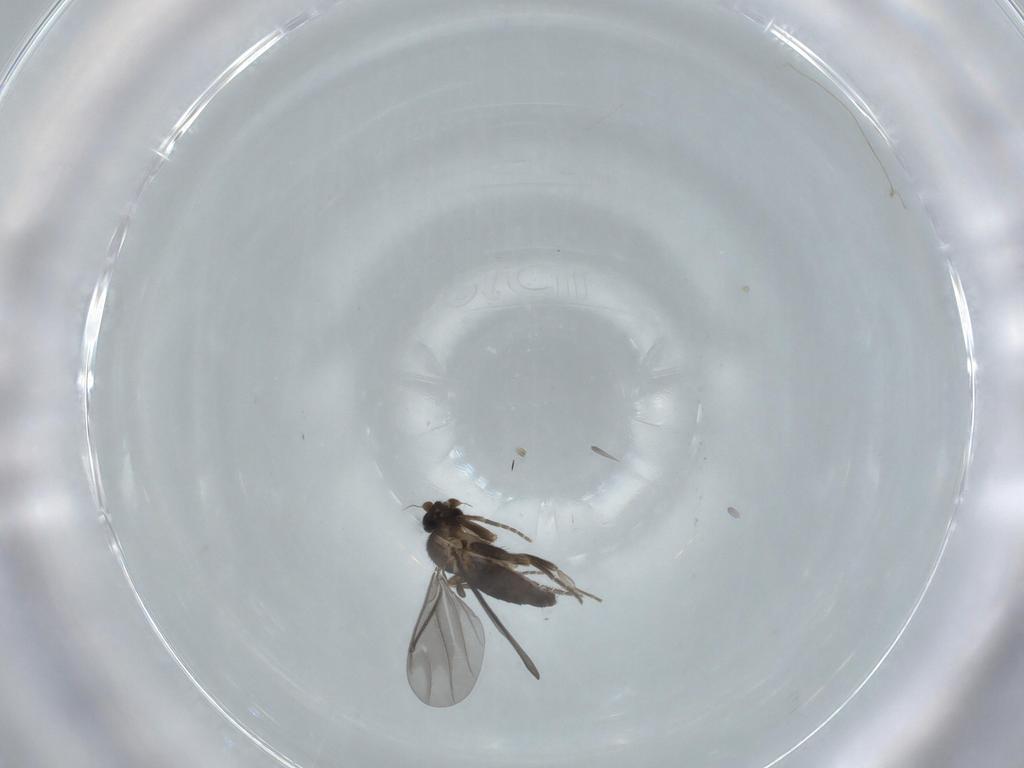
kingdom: Animalia
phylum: Arthropoda
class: Insecta
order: Diptera
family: Phoridae
